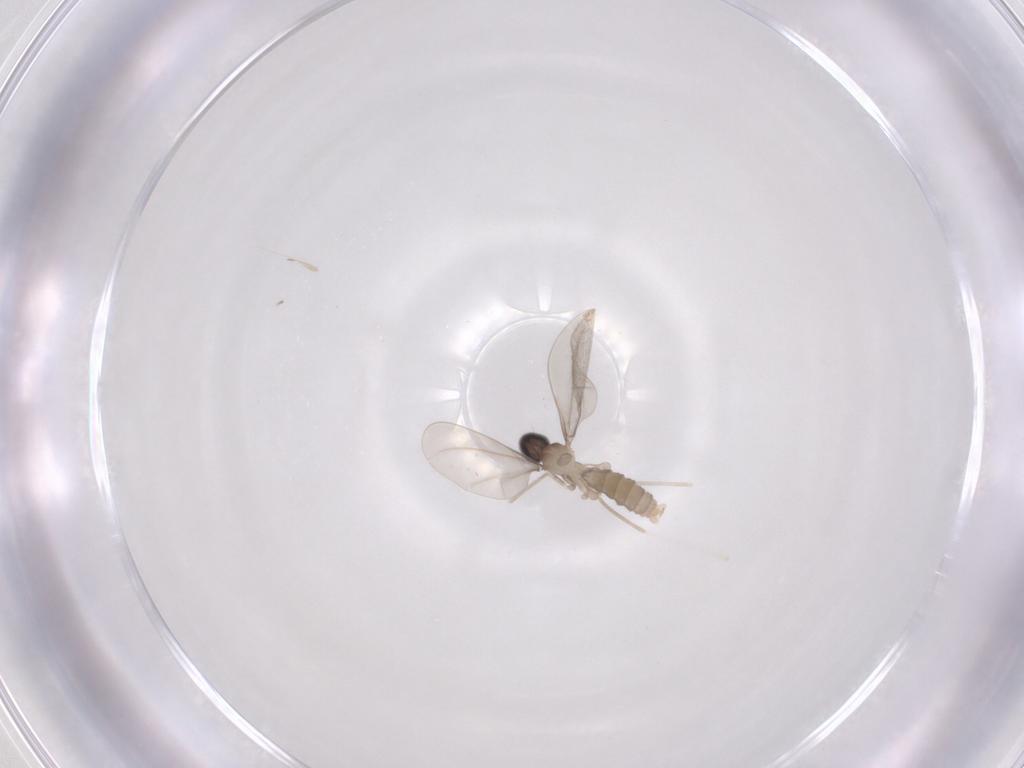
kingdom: Animalia
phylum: Arthropoda
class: Insecta
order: Diptera
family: Cecidomyiidae
